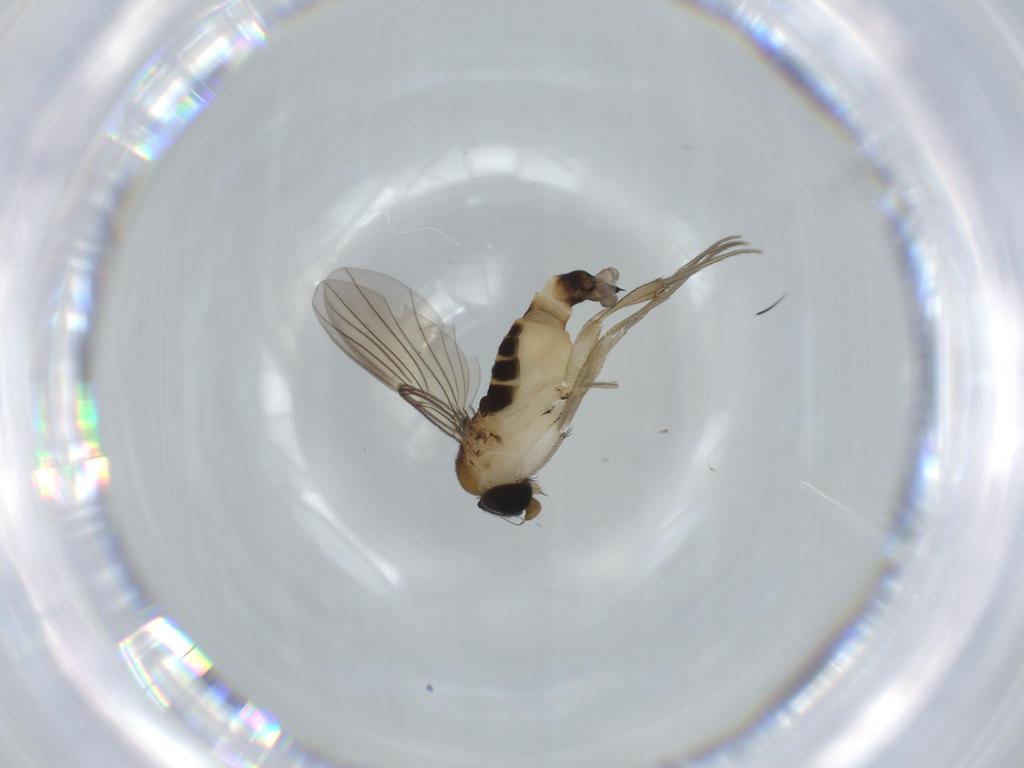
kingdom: Animalia
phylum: Arthropoda
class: Insecta
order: Diptera
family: Phoridae
